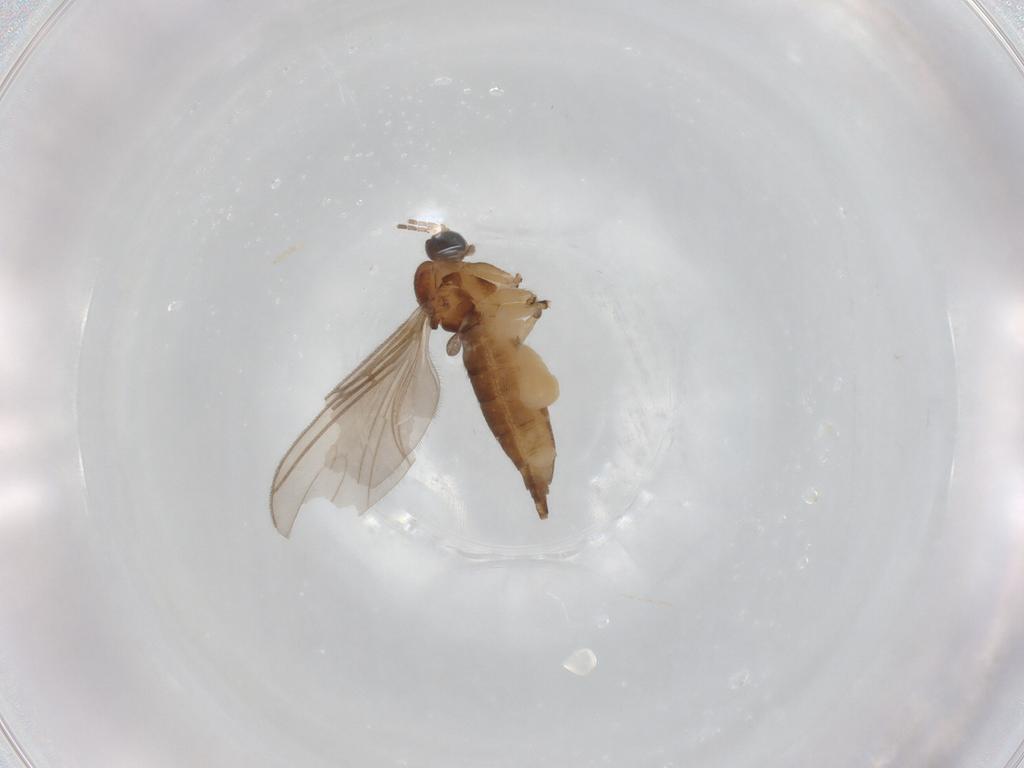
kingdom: Animalia
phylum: Arthropoda
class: Insecta
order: Diptera
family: Sciaridae
